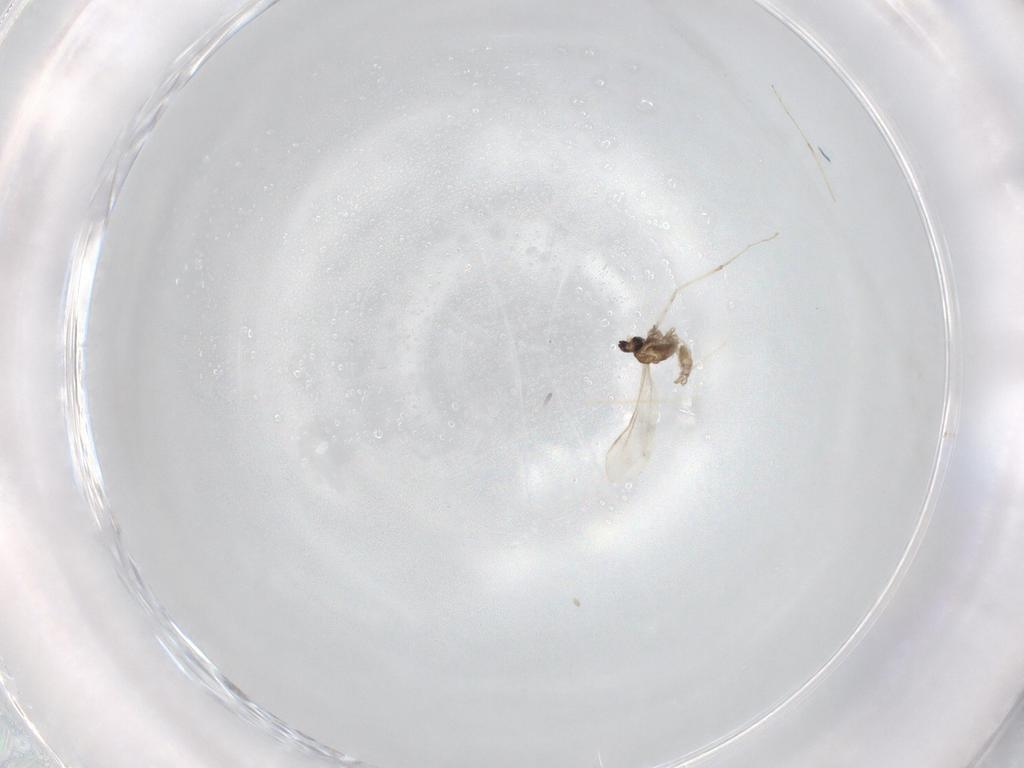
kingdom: Animalia
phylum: Arthropoda
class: Insecta
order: Diptera
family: Cecidomyiidae
